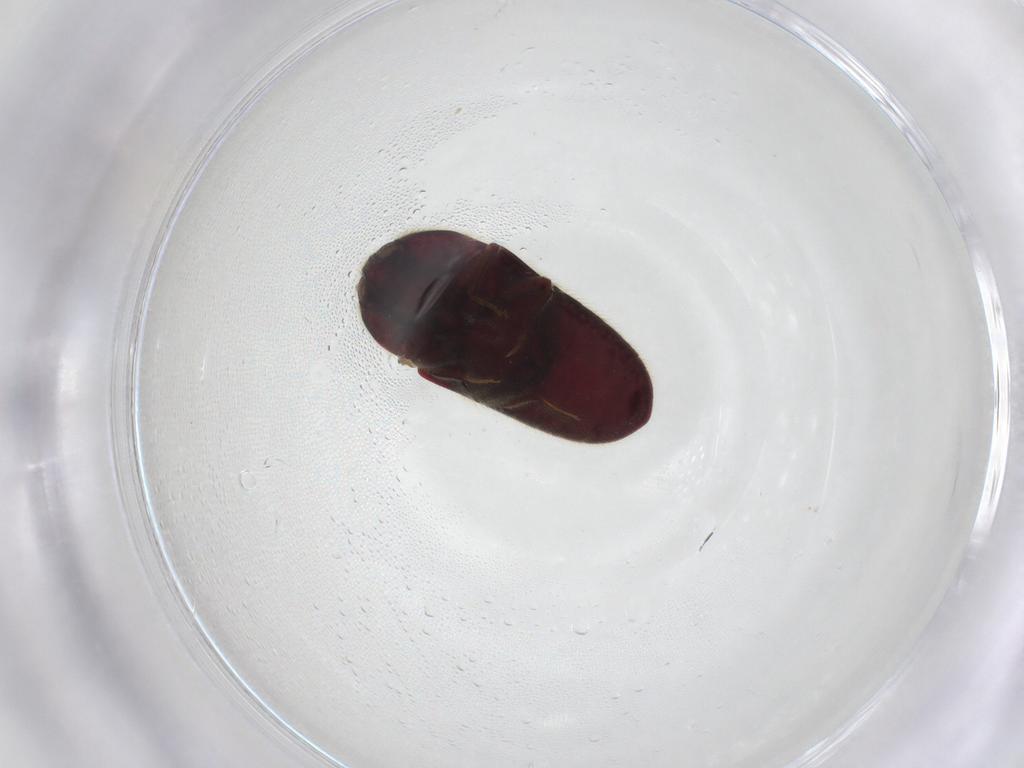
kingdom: Animalia
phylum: Arthropoda
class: Insecta
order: Coleoptera
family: Throscidae
